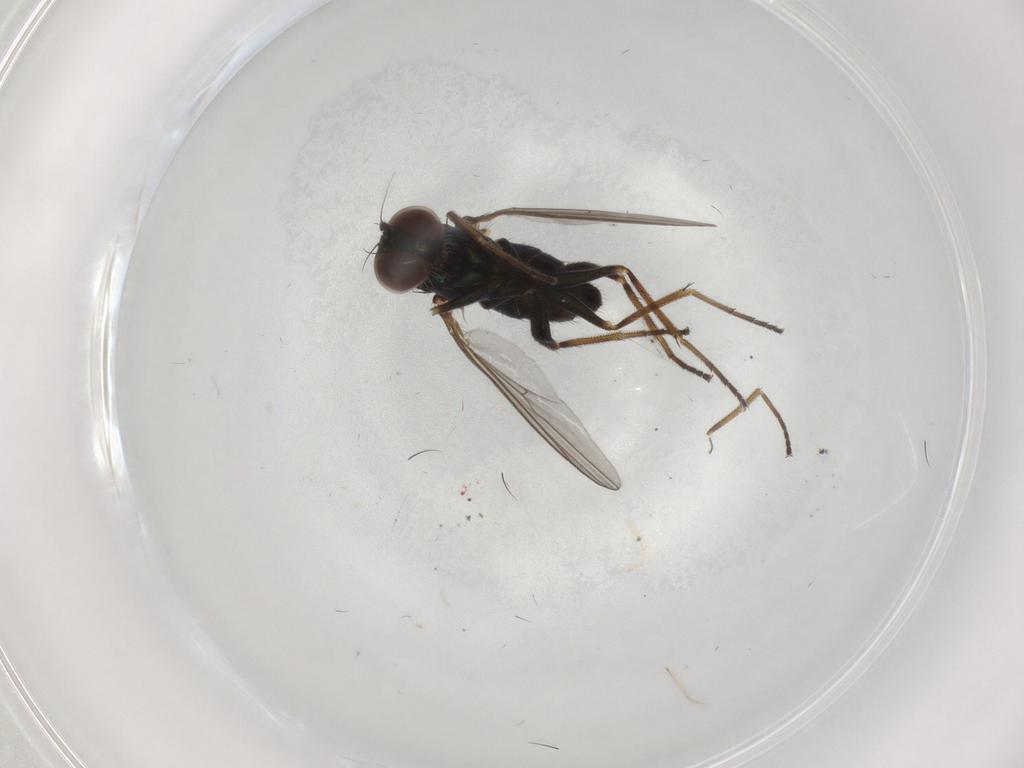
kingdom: Animalia
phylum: Arthropoda
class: Insecta
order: Diptera
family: Dolichopodidae
